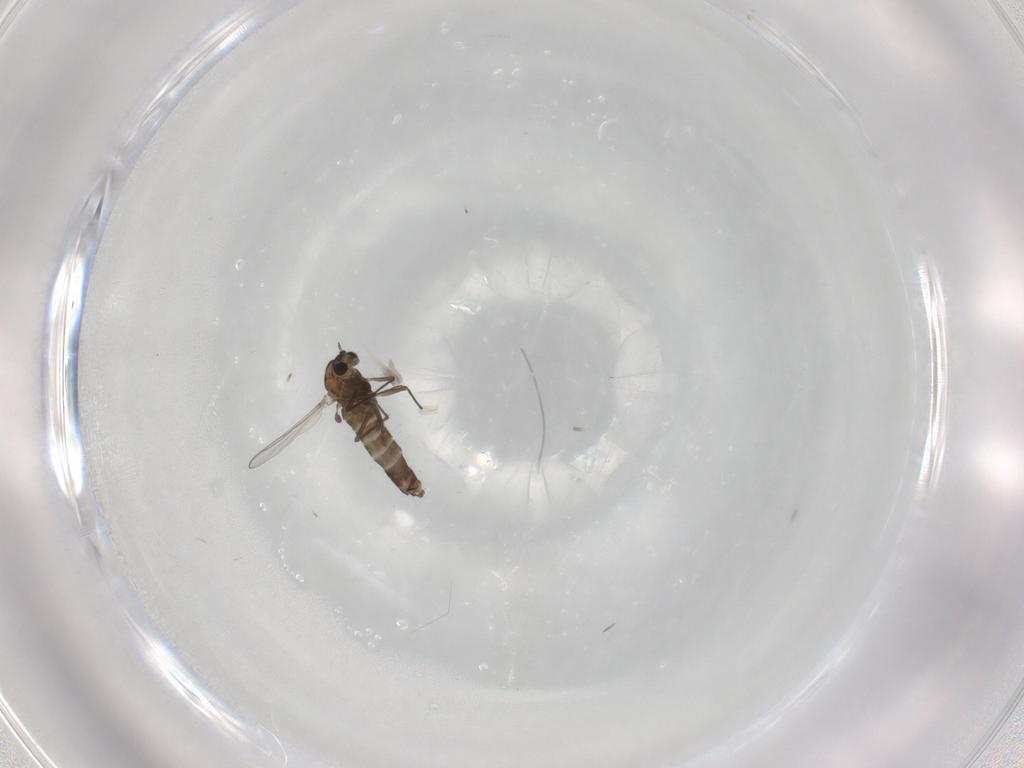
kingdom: Animalia
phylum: Arthropoda
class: Insecta
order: Diptera
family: Chironomidae
